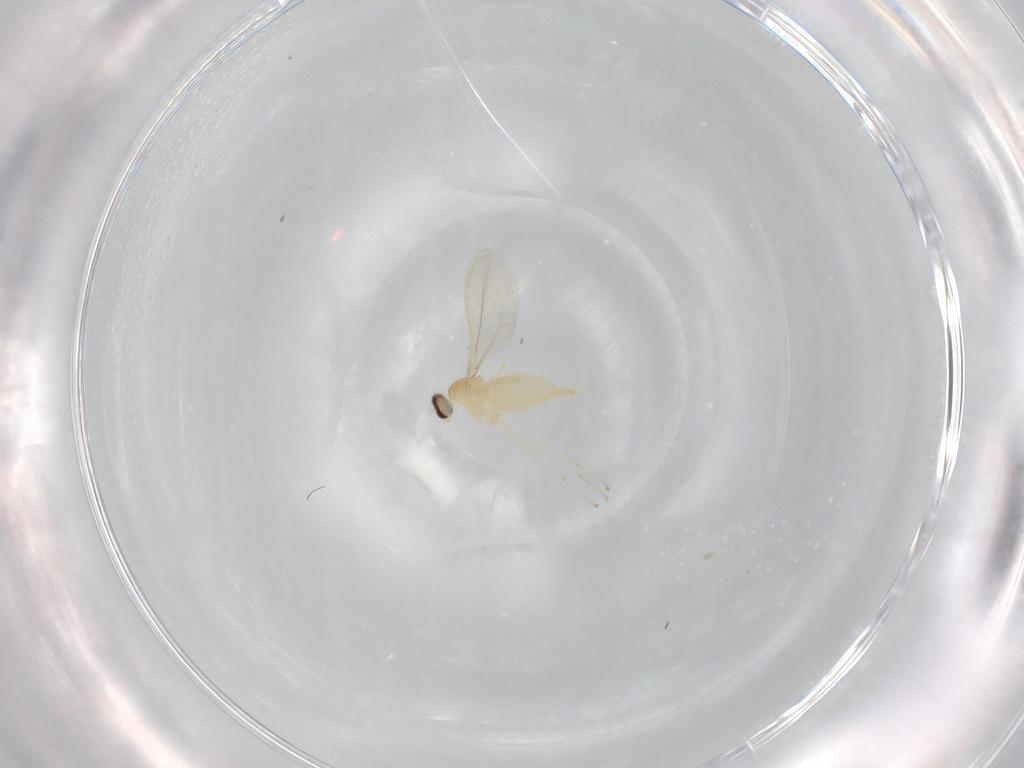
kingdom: Animalia
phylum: Arthropoda
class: Insecta
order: Diptera
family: Cecidomyiidae
